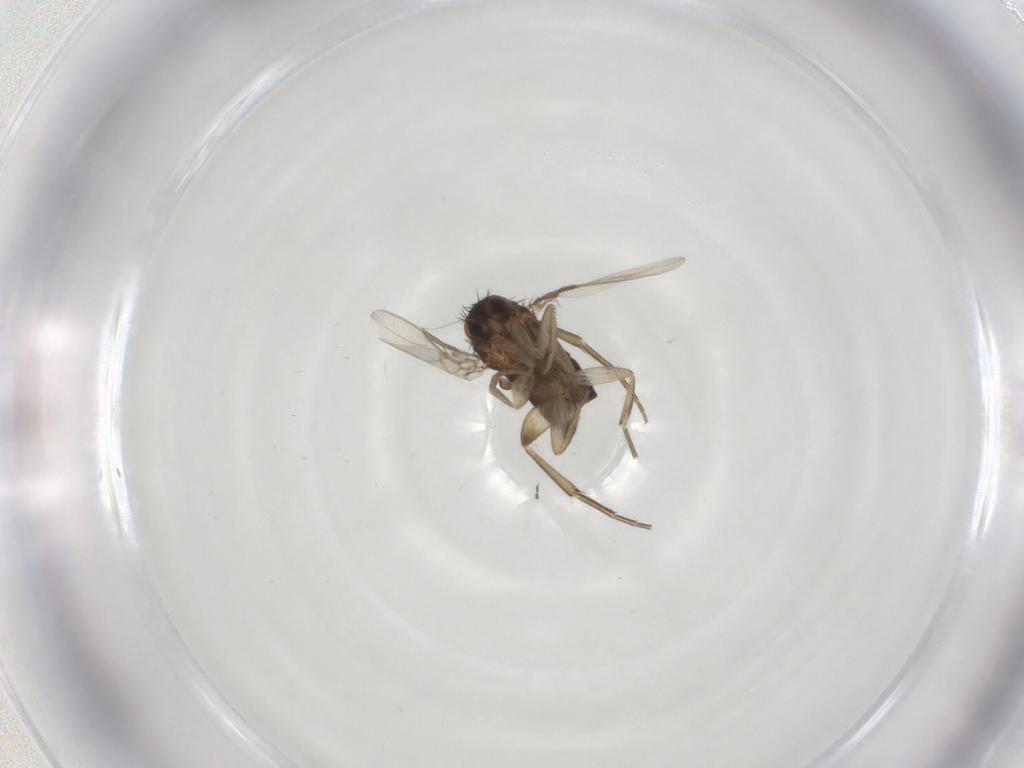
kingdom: Animalia
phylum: Arthropoda
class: Insecta
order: Diptera
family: Phoridae
